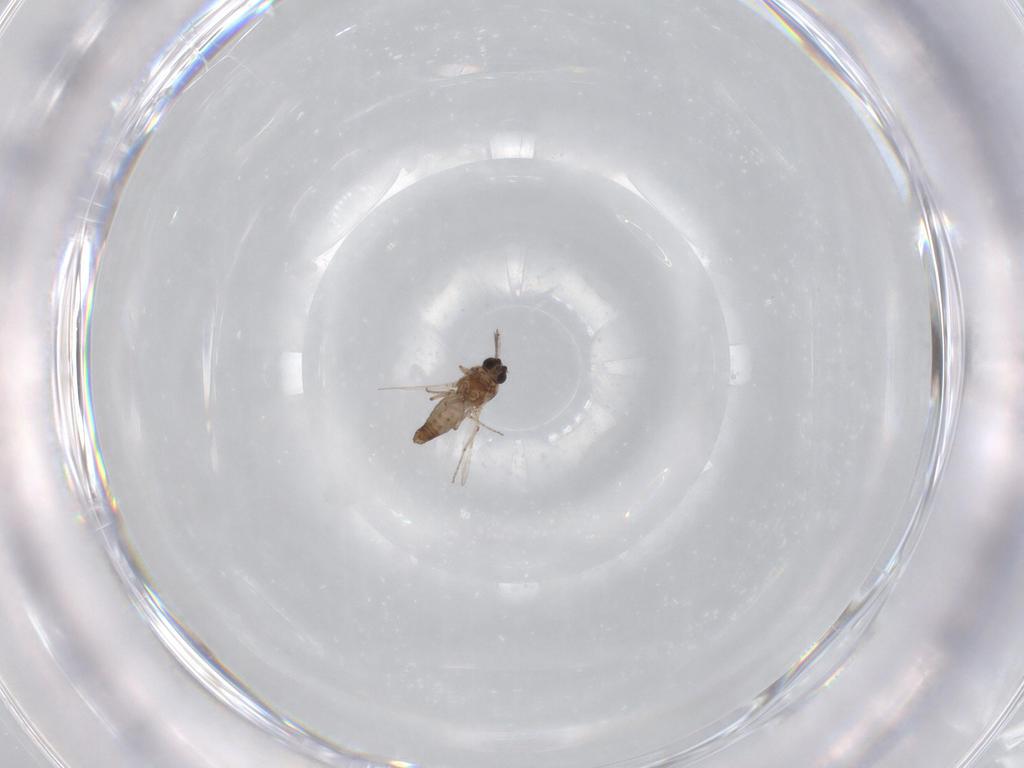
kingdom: Animalia
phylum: Arthropoda
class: Insecta
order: Diptera
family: Ceratopogonidae
